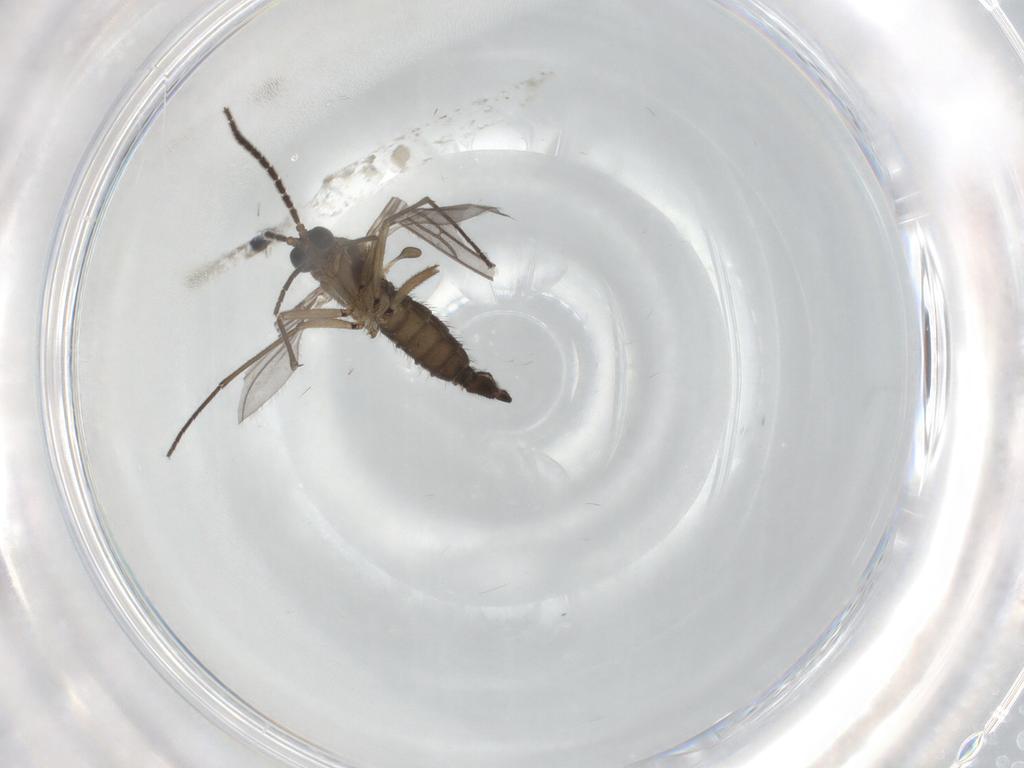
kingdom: Animalia
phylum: Arthropoda
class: Insecta
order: Diptera
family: Sciaridae
